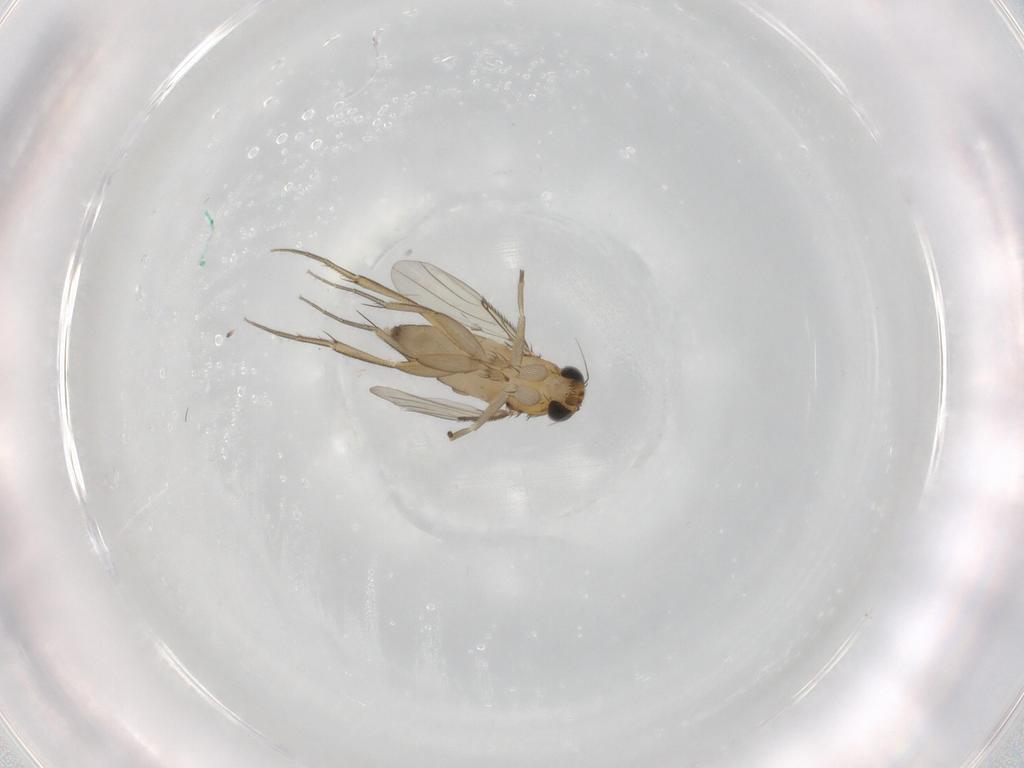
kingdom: Animalia
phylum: Arthropoda
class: Insecta
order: Diptera
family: Phoridae
